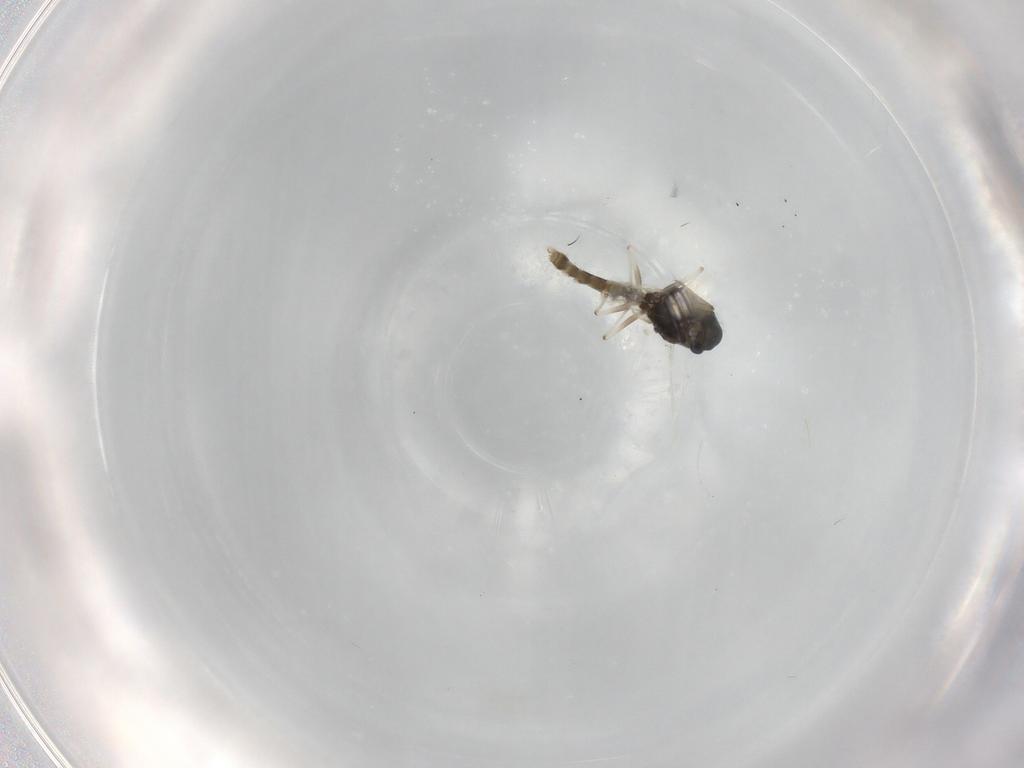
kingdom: Animalia
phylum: Arthropoda
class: Insecta
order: Diptera
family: Chironomidae
